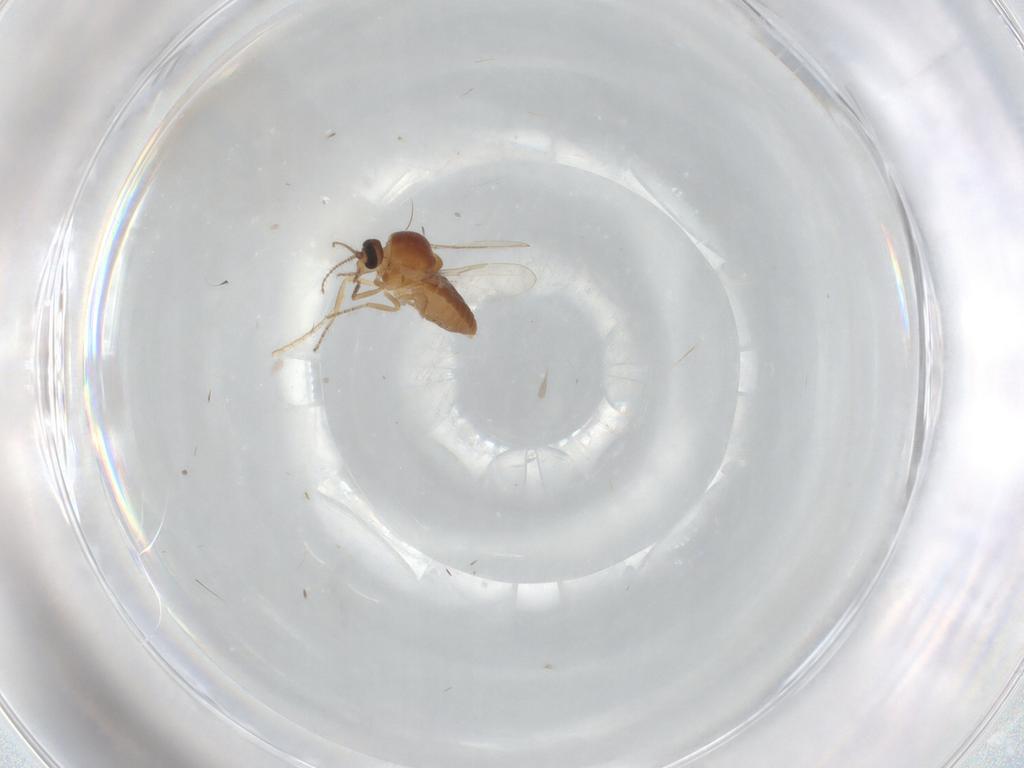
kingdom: Animalia
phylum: Arthropoda
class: Insecta
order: Diptera
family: Ceratopogonidae
